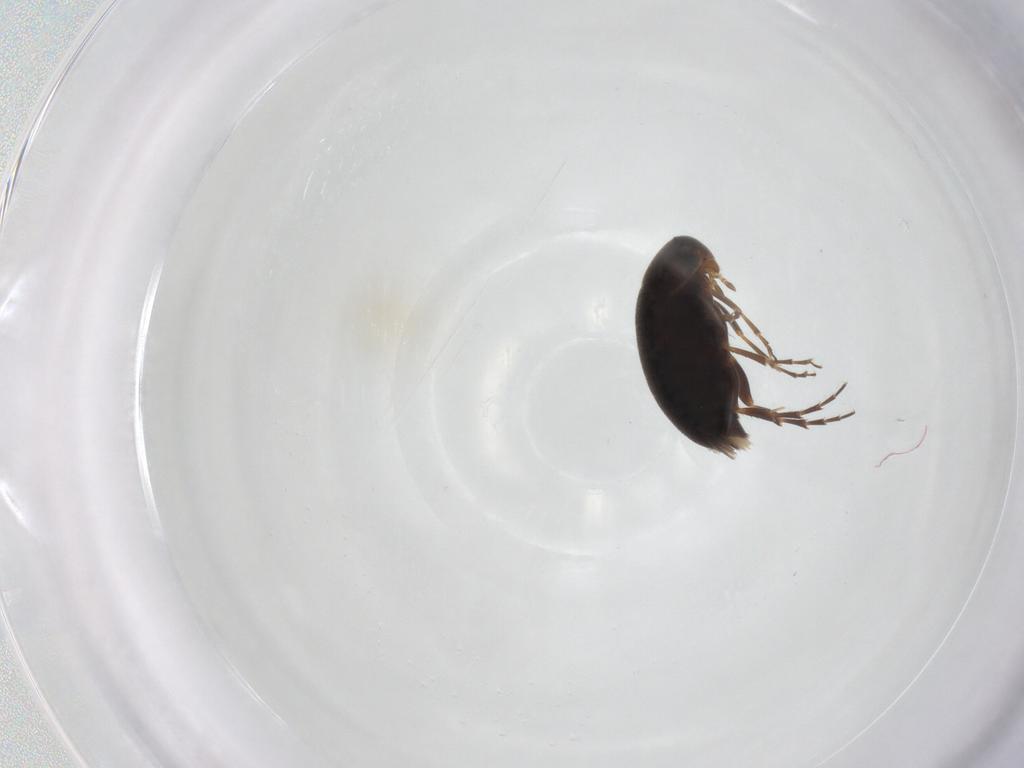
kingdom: Animalia
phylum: Arthropoda
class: Insecta
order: Coleoptera
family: Scraptiidae
